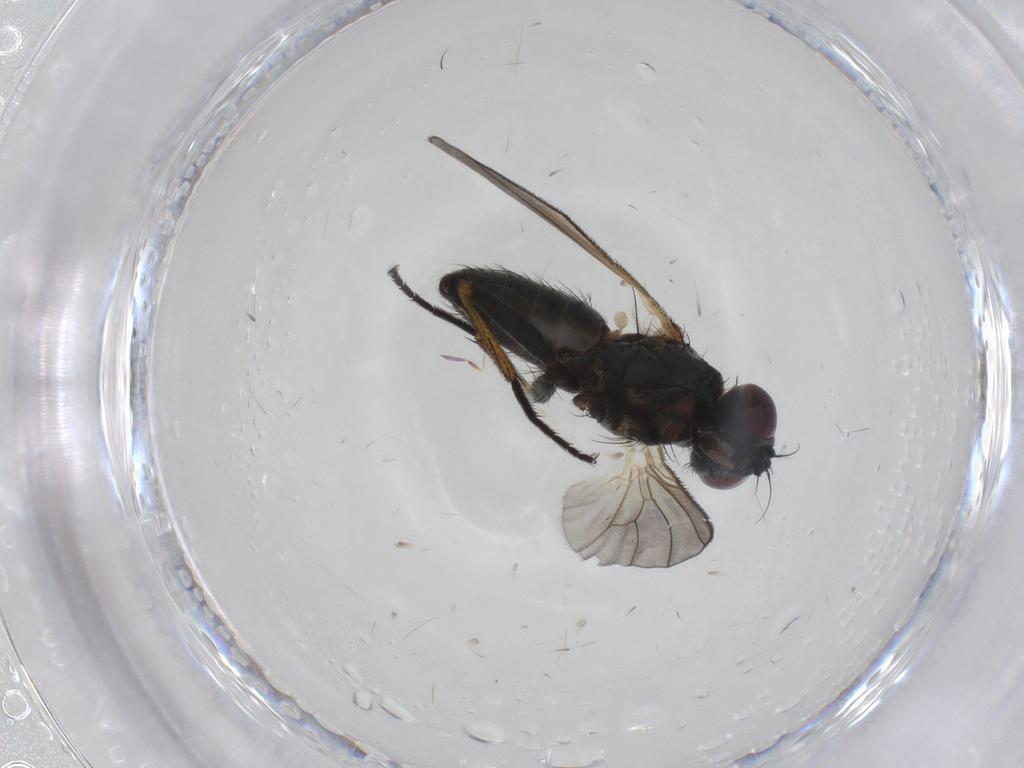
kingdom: Animalia
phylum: Arthropoda
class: Insecta
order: Diptera
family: Muscidae
